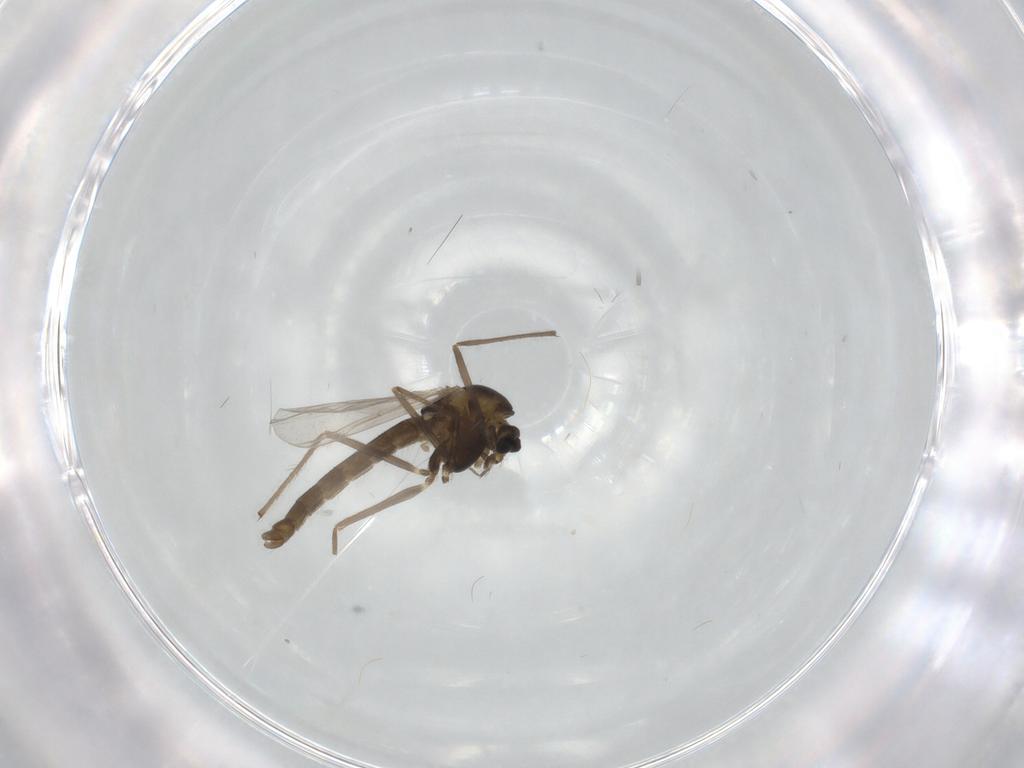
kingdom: Animalia
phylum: Arthropoda
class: Insecta
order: Diptera
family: Chironomidae
